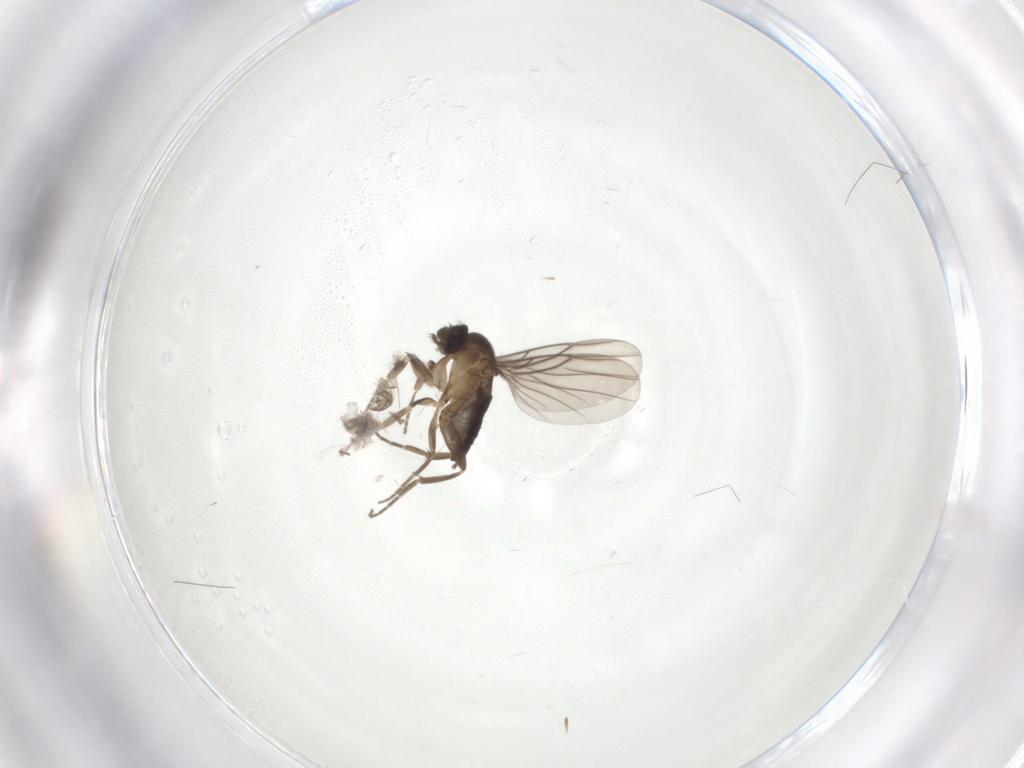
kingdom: Animalia
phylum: Arthropoda
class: Insecta
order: Diptera
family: Cecidomyiidae
